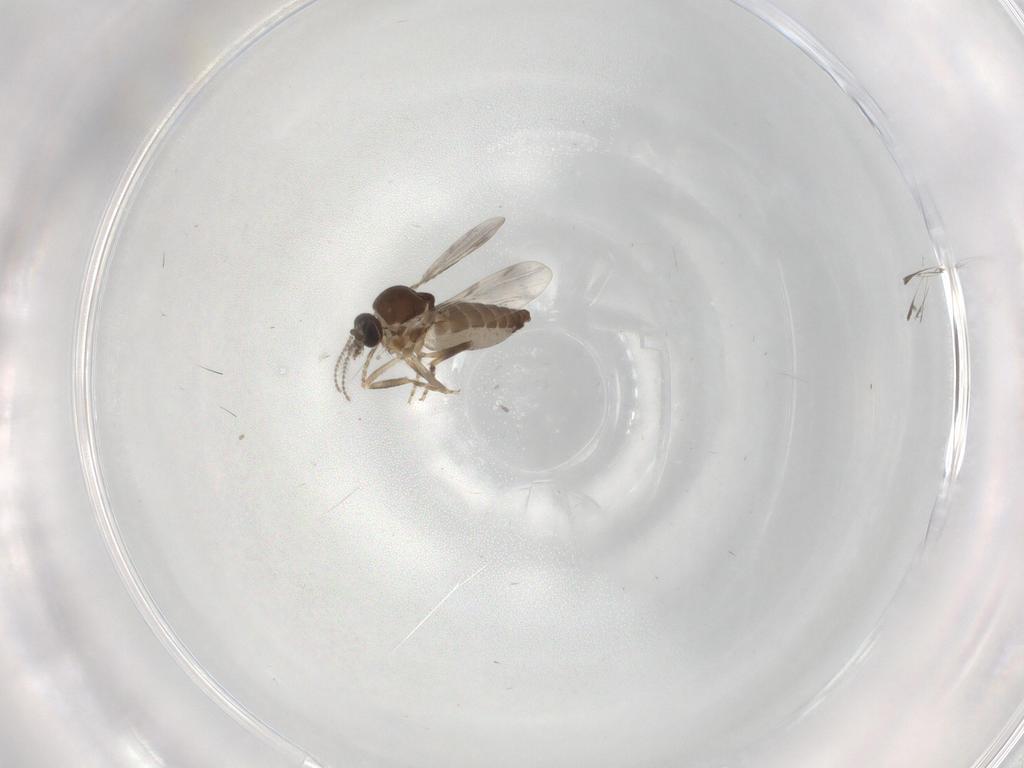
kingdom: Animalia
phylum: Arthropoda
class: Insecta
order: Diptera
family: Ceratopogonidae
